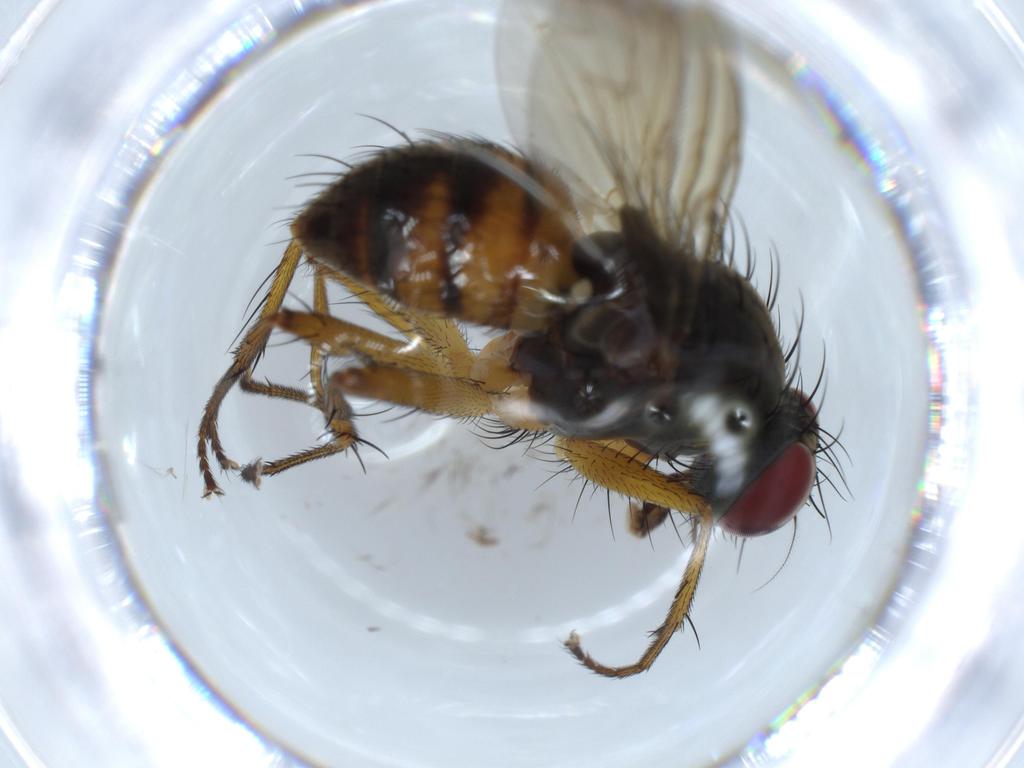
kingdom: Animalia
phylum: Arthropoda
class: Insecta
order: Diptera
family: Muscidae
